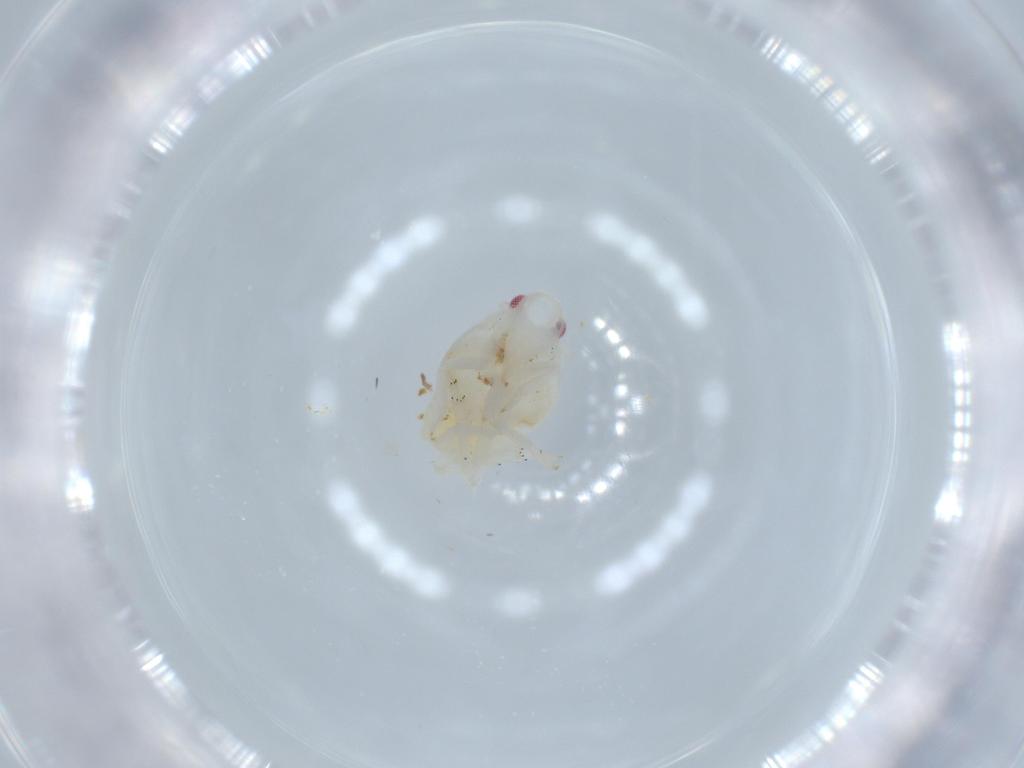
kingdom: Animalia
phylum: Arthropoda
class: Insecta
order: Hemiptera
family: Flatidae
